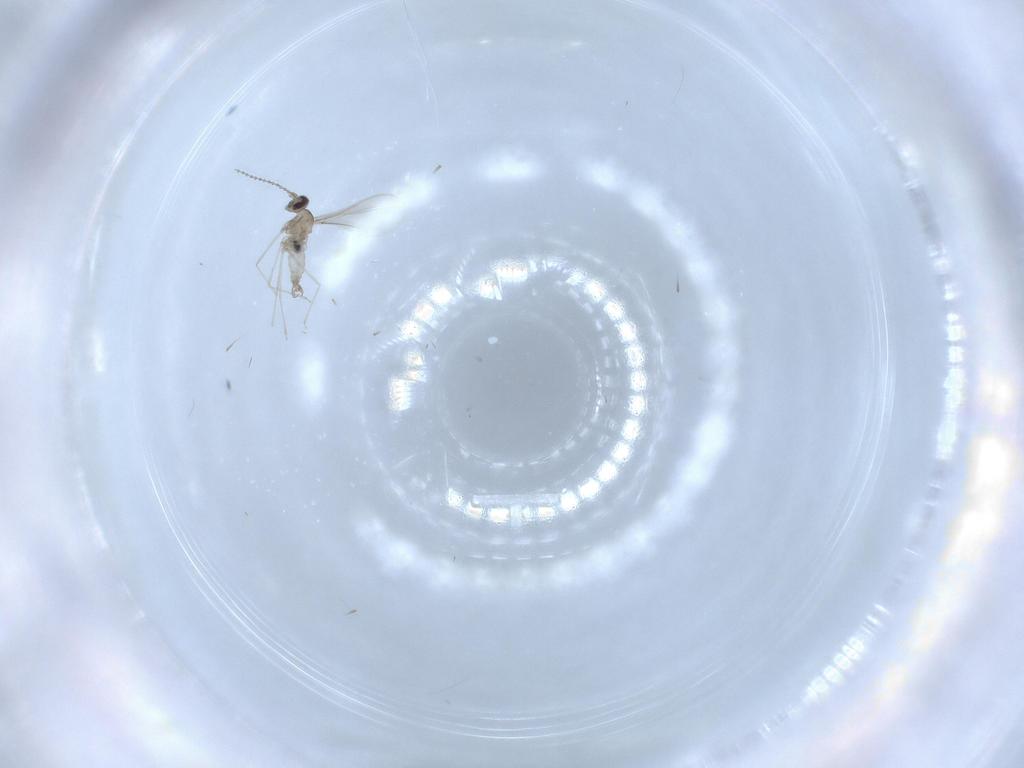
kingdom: Animalia
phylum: Arthropoda
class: Insecta
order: Diptera
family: Cecidomyiidae
